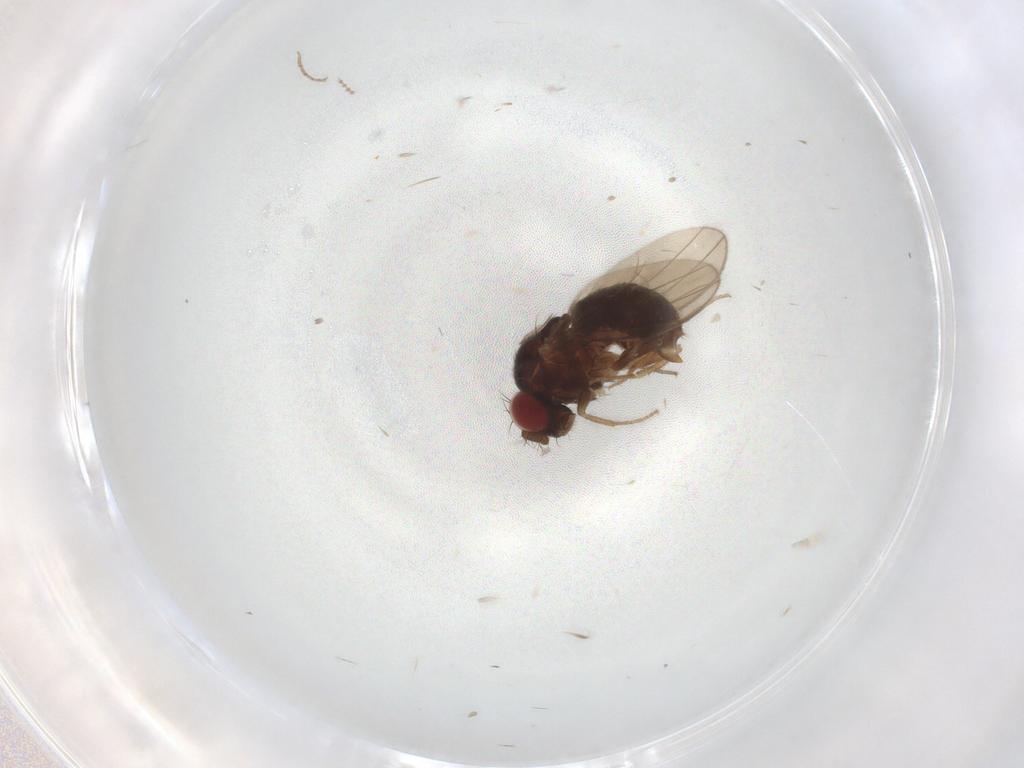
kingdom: Animalia
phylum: Arthropoda
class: Insecta
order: Diptera
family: Drosophilidae
